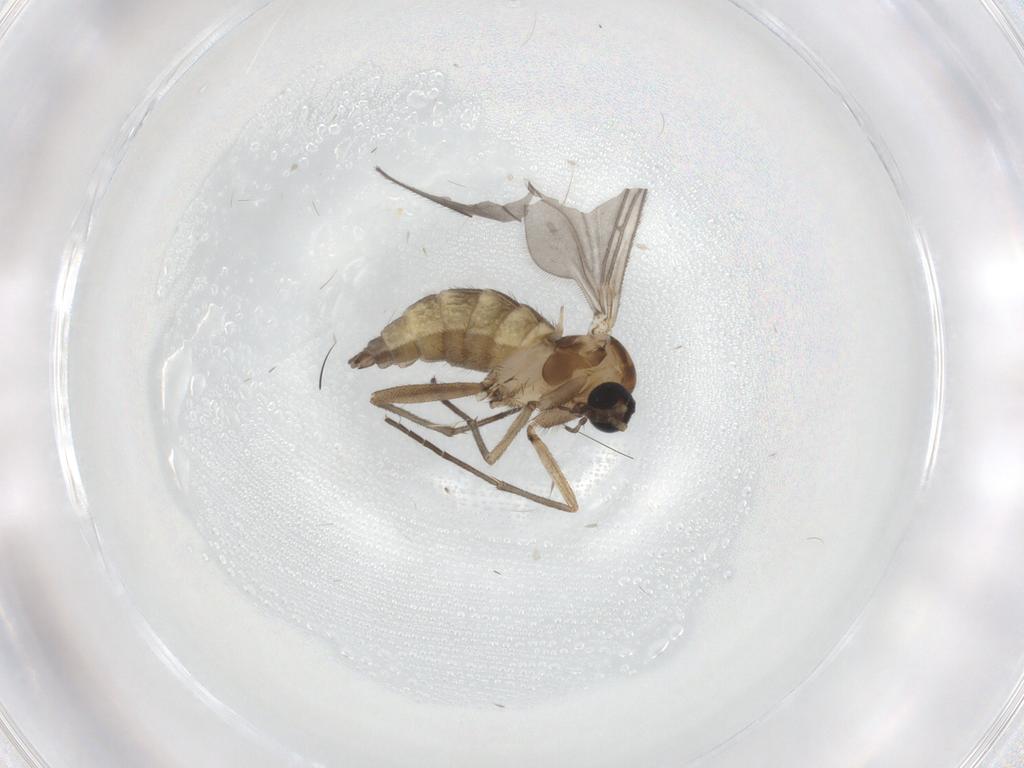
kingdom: Animalia
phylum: Arthropoda
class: Insecta
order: Diptera
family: Sciaridae
